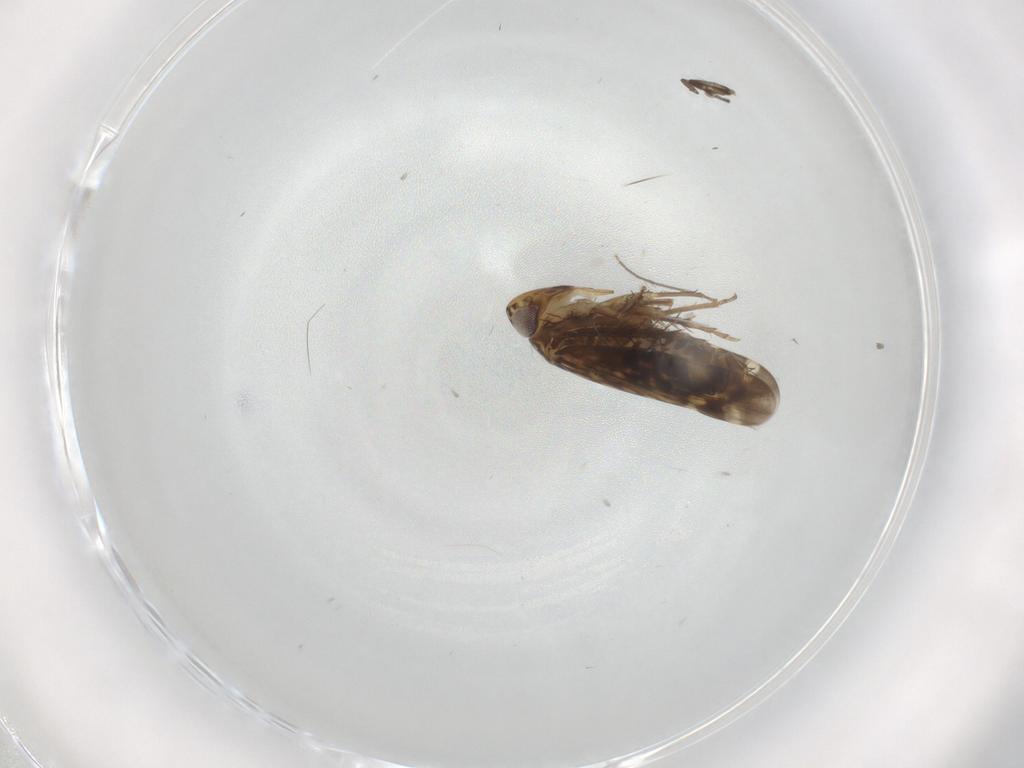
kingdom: Animalia
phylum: Arthropoda
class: Insecta
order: Hemiptera
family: Cicadellidae
